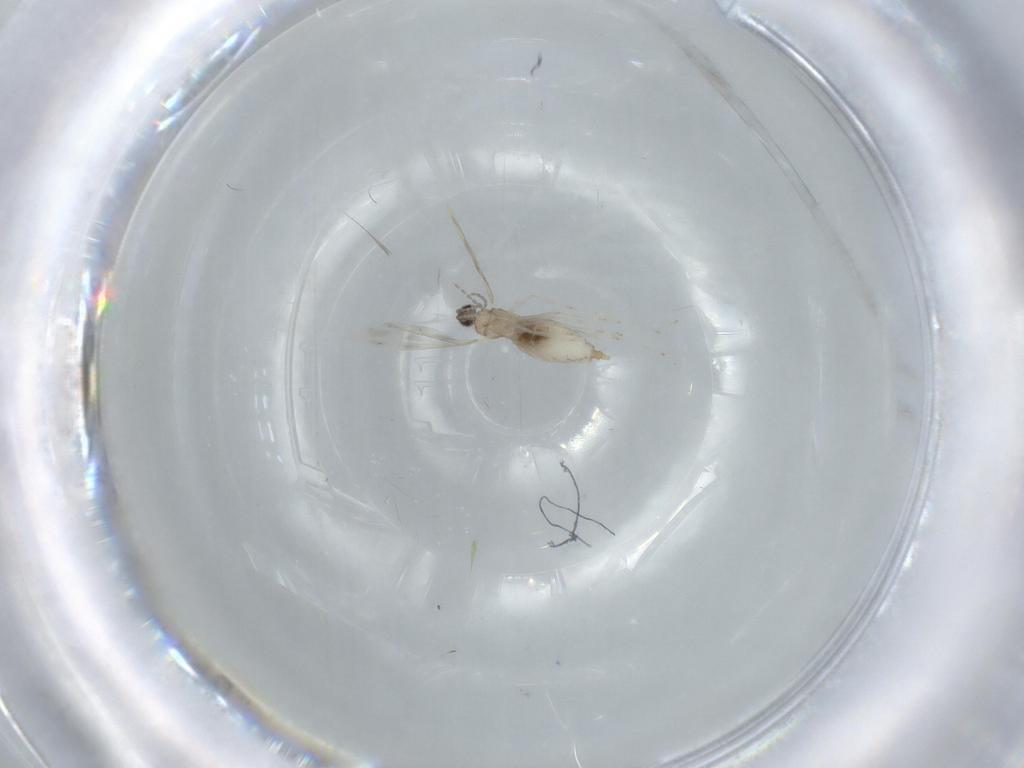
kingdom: Animalia
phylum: Arthropoda
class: Insecta
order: Diptera
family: Cecidomyiidae
